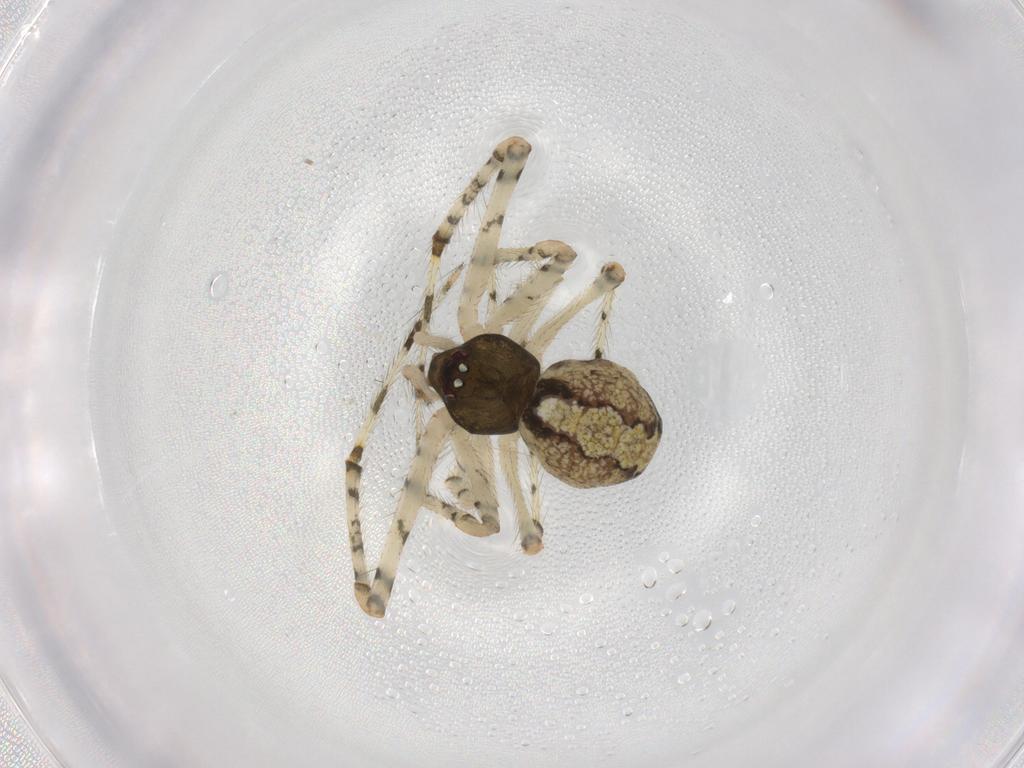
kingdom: Animalia
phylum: Arthropoda
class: Arachnida
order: Araneae
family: Theridiidae
